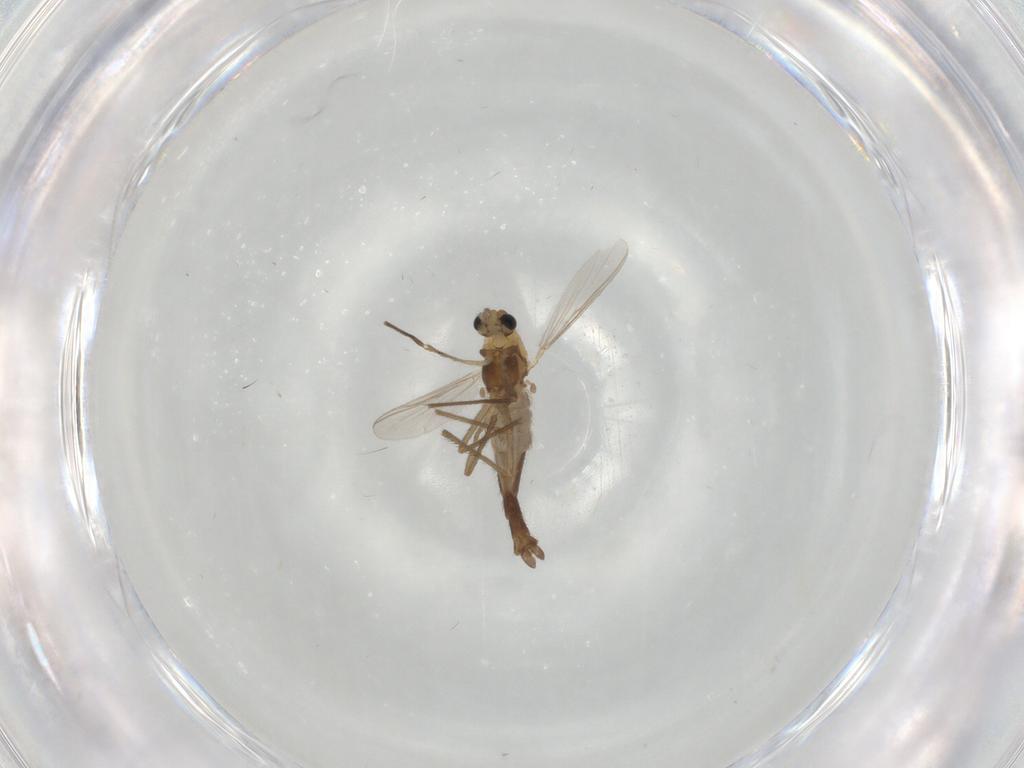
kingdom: Animalia
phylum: Arthropoda
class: Insecta
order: Diptera
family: Chironomidae
